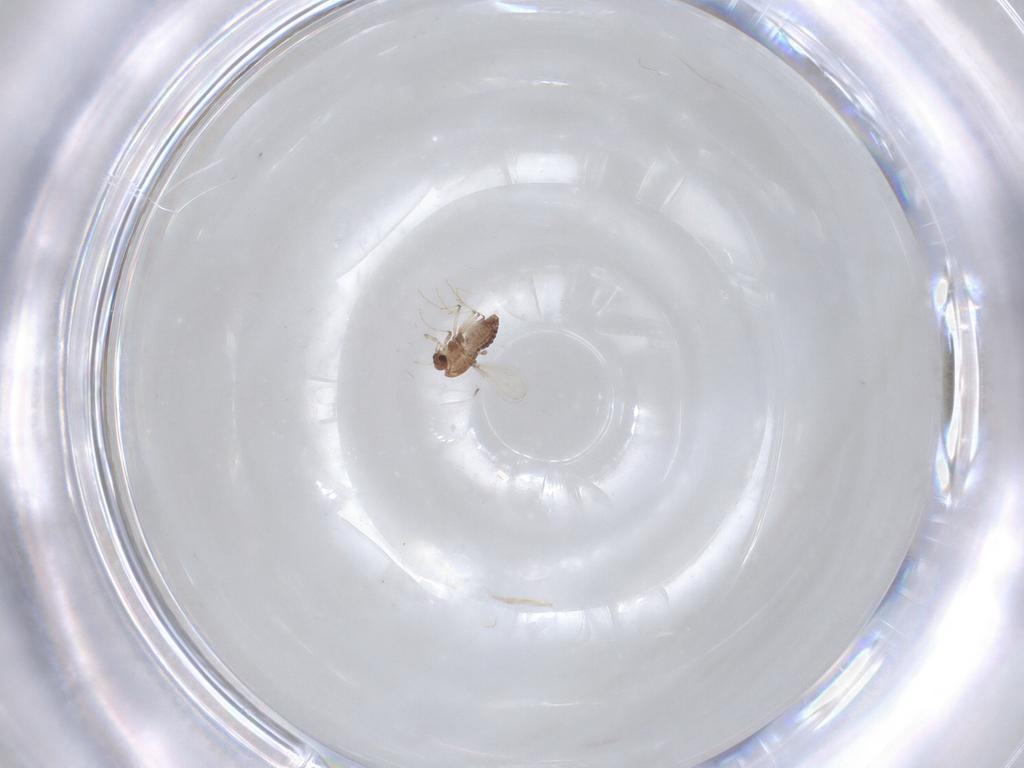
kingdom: Animalia
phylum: Arthropoda
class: Insecta
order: Diptera
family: Chironomidae
